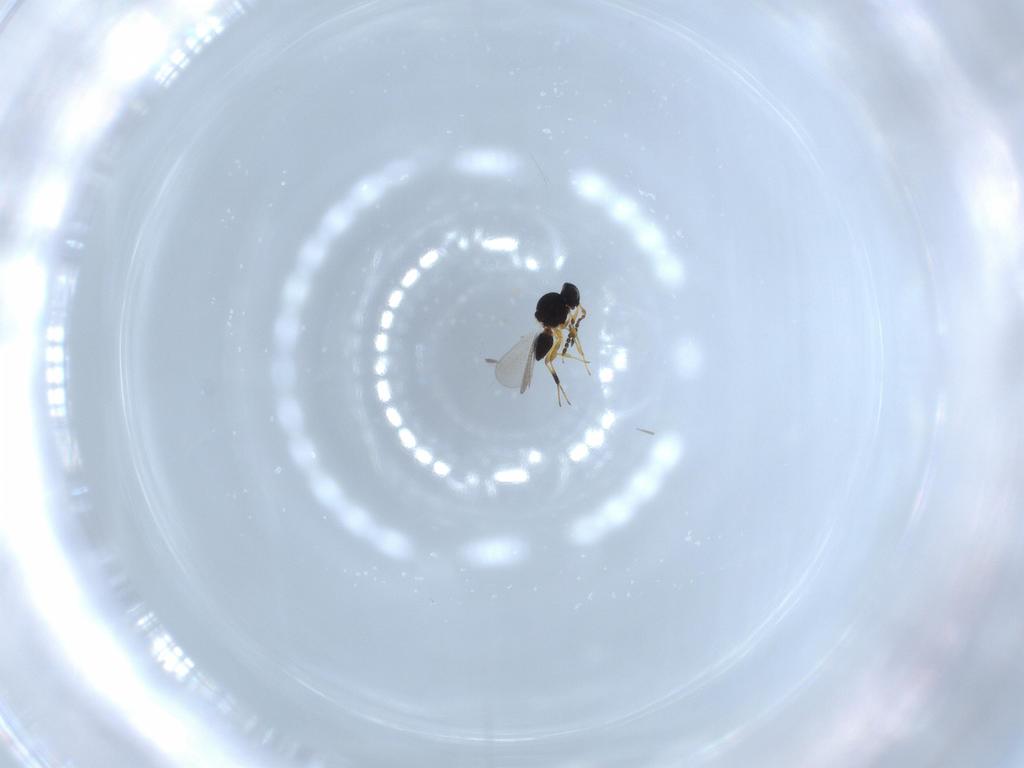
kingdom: Animalia
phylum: Arthropoda
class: Insecta
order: Hymenoptera
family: Platygastridae
